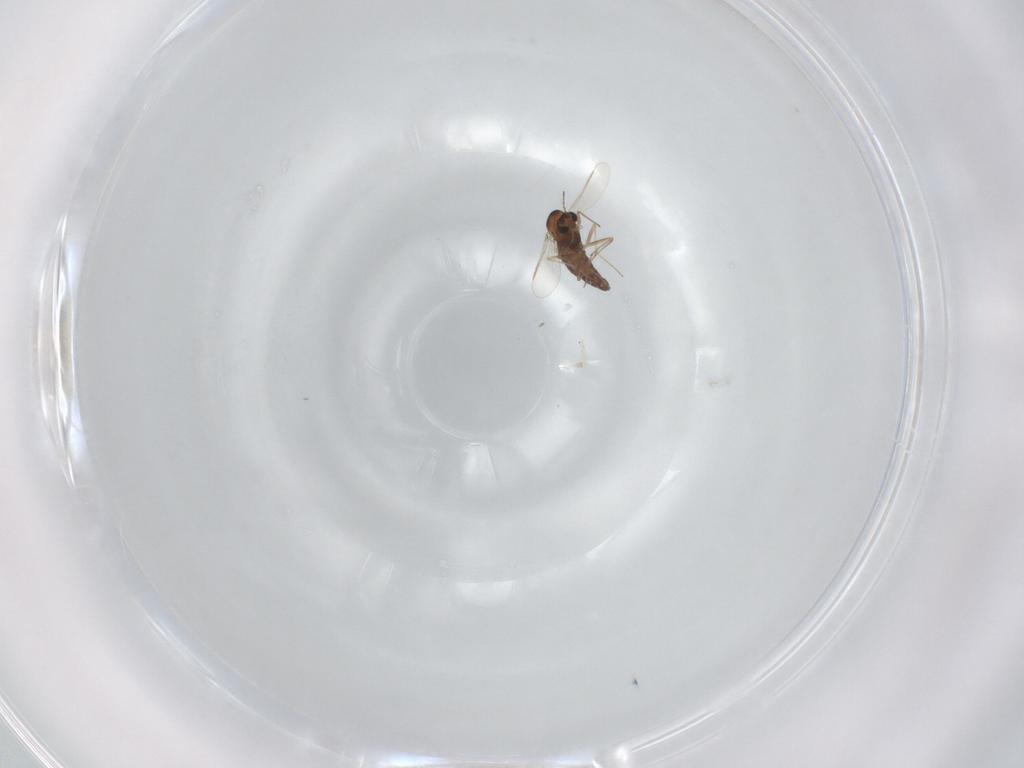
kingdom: Animalia
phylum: Arthropoda
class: Insecta
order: Diptera
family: Chironomidae
